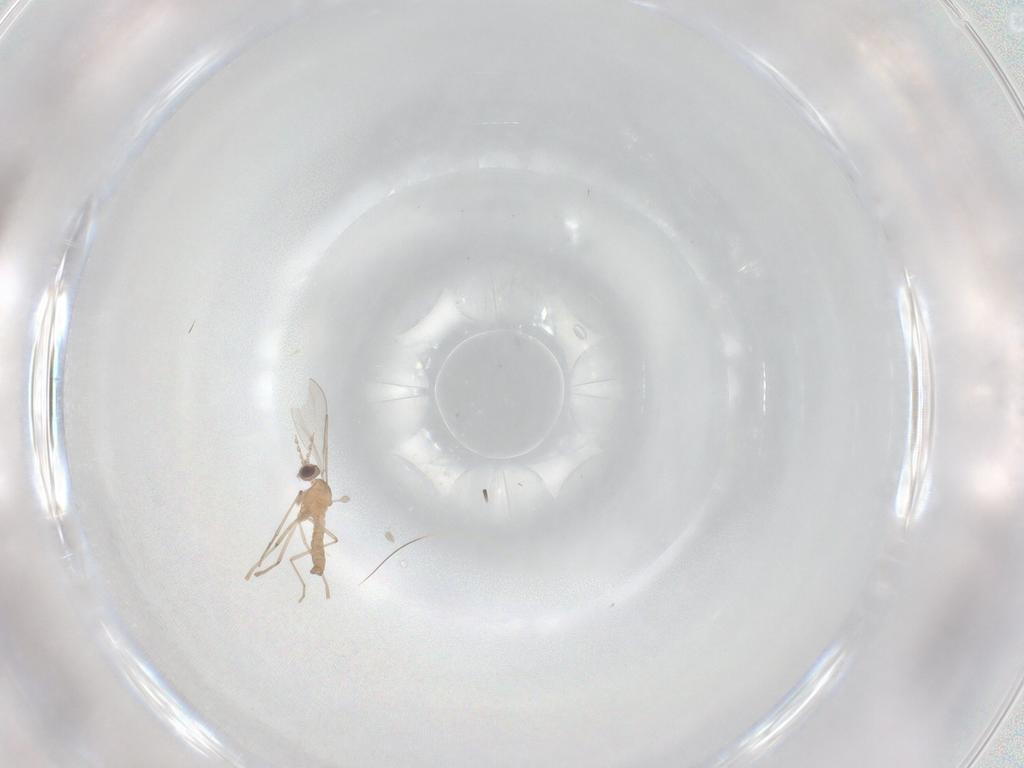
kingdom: Animalia
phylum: Arthropoda
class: Insecta
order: Diptera
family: Cecidomyiidae
